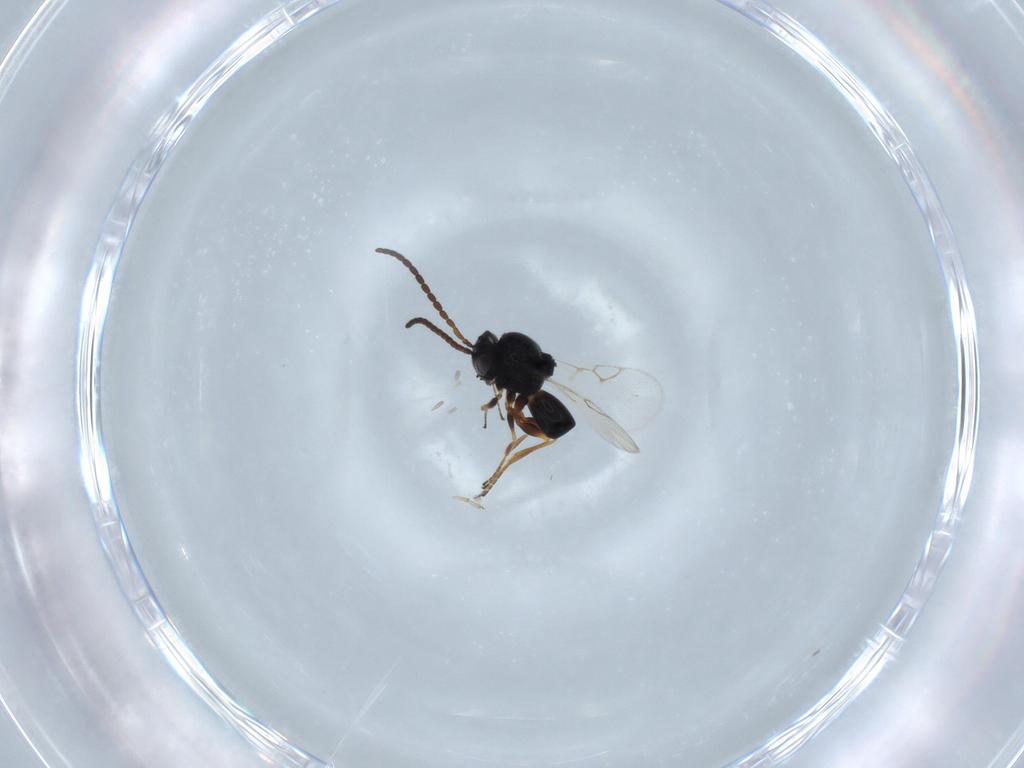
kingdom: Animalia
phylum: Arthropoda
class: Insecta
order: Hymenoptera
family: Figitidae
